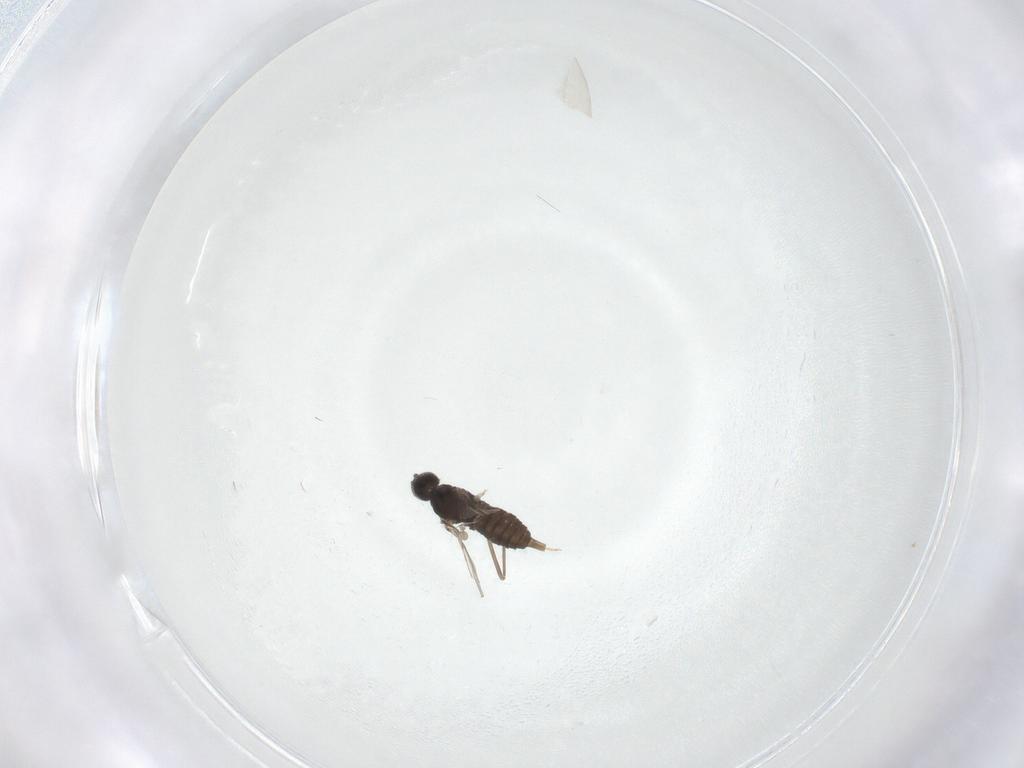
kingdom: Animalia
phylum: Arthropoda
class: Insecta
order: Diptera
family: Cecidomyiidae
